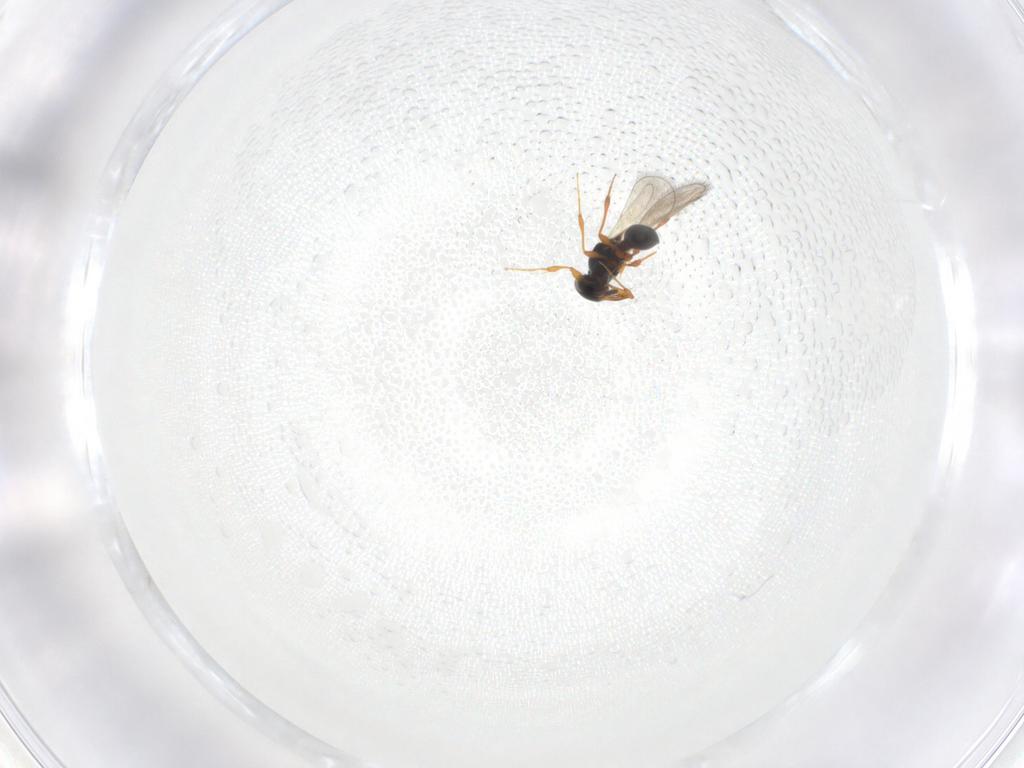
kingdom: Animalia
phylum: Arthropoda
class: Insecta
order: Hymenoptera
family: Platygastridae
